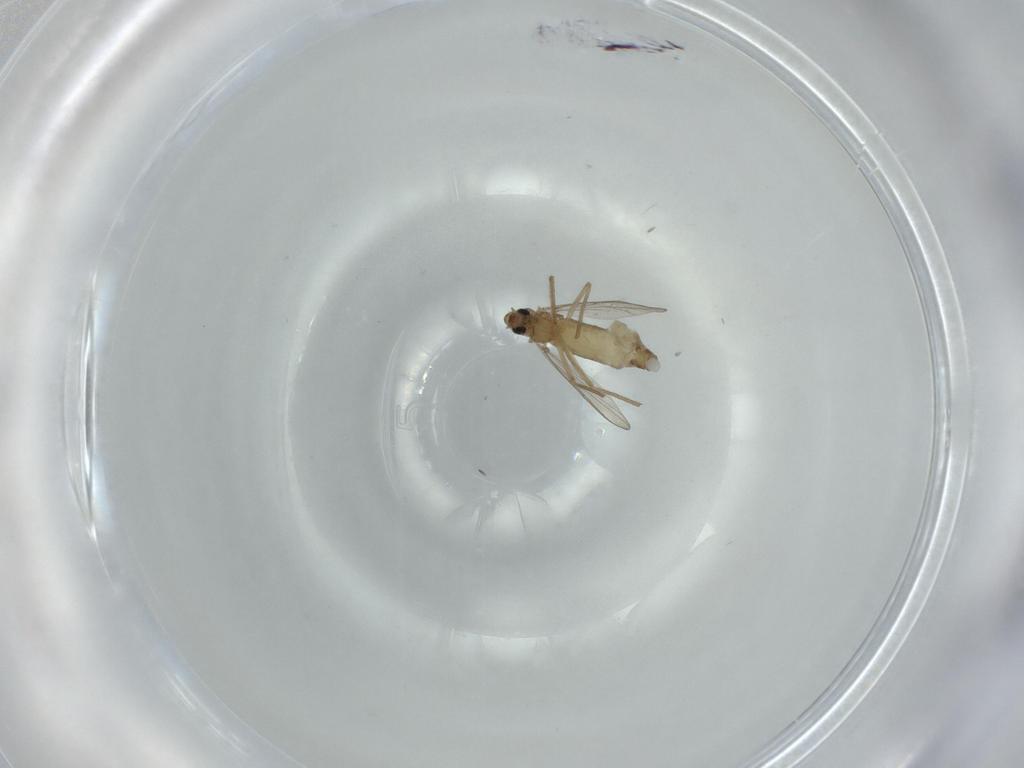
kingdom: Animalia
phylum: Arthropoda
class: Insecta
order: Diptera
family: Chironomidae
